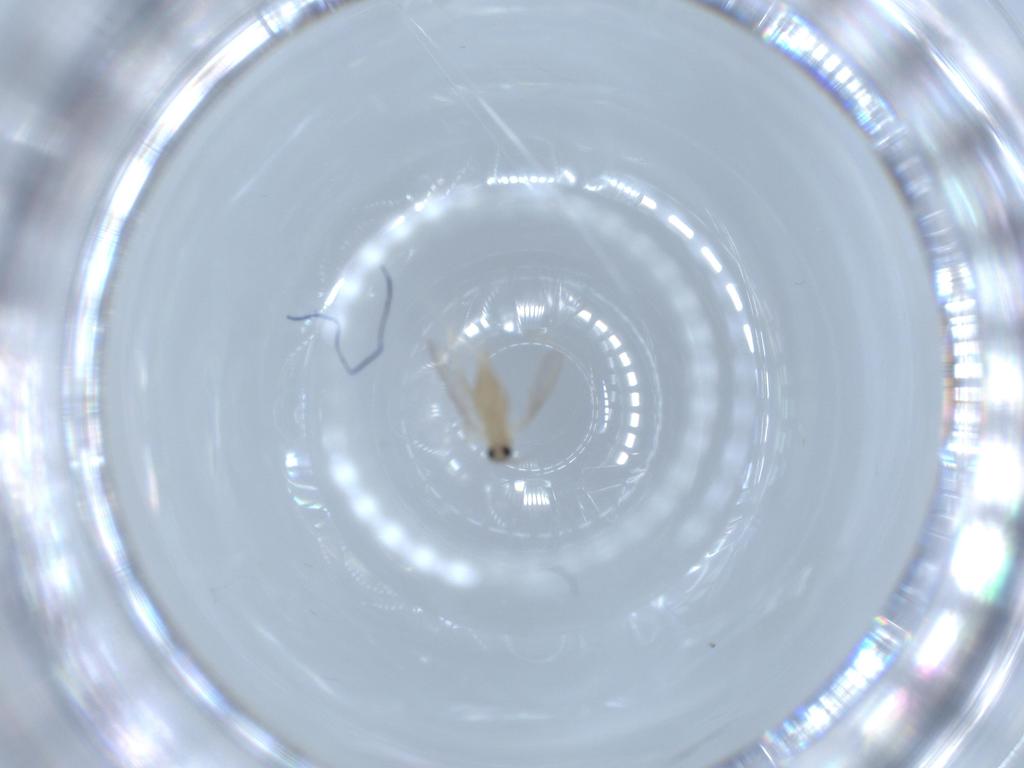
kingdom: Animalia
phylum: Arthropoda
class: Insecta
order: Diptera
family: Cecidomyiidae
